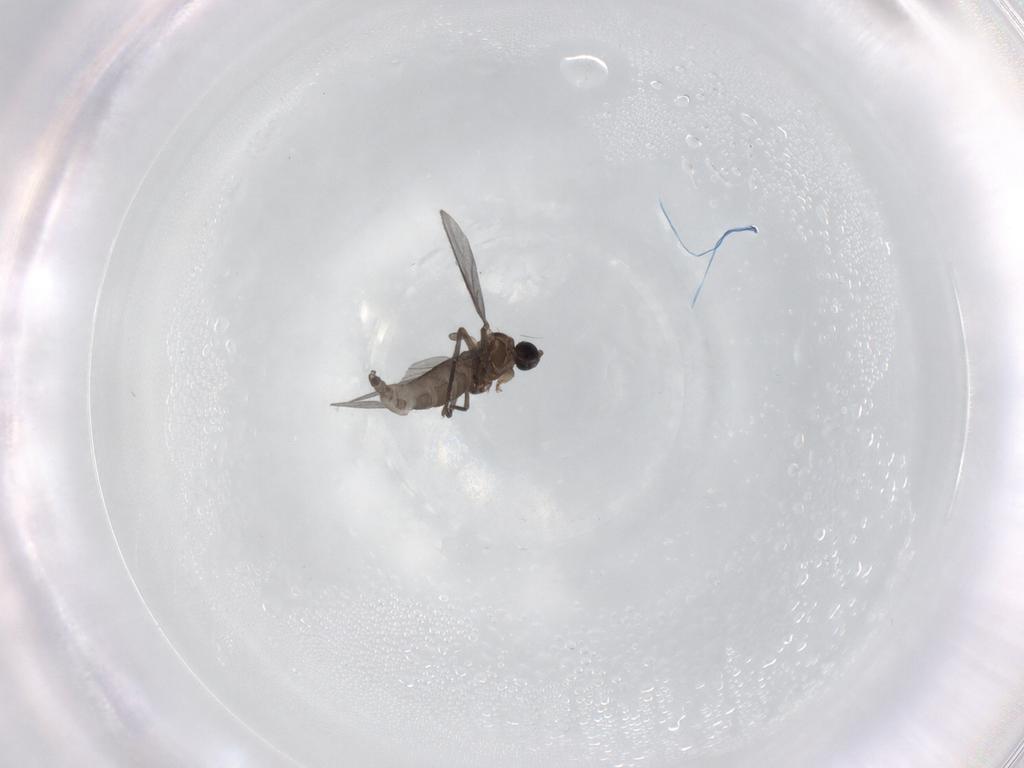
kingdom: Animalia
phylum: Arthropoda
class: Insecta
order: Diptera
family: Sciaridae
